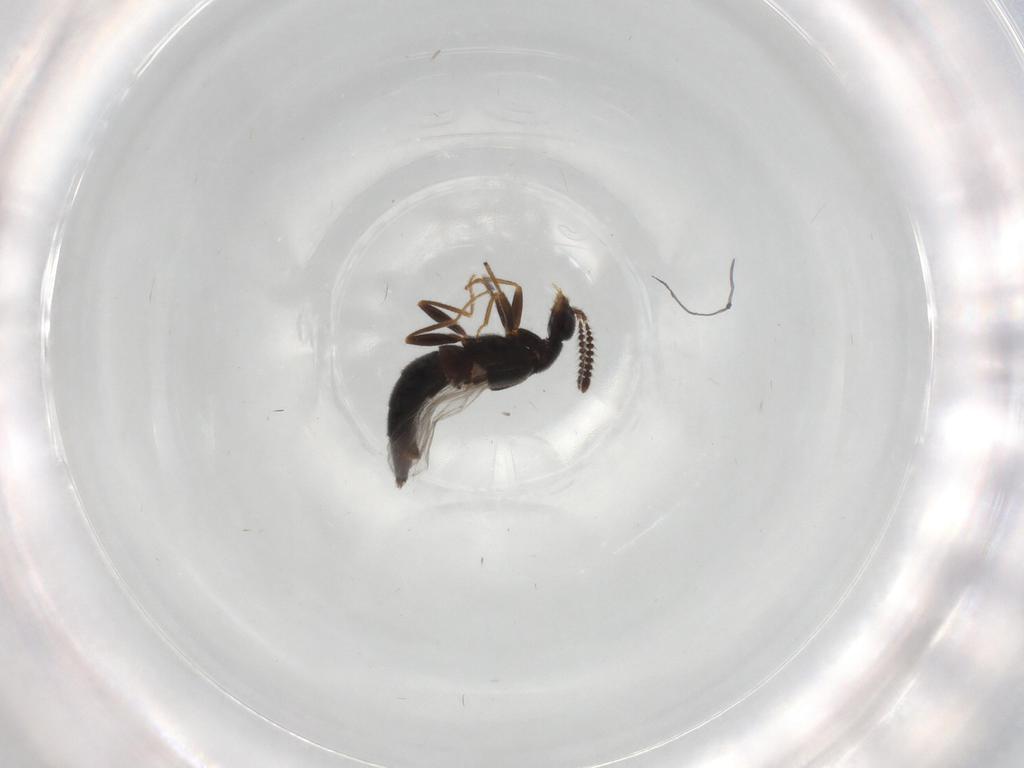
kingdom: Animalia
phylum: Arthropoda
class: Insecta
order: Coleoptera
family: Staphylinidae
